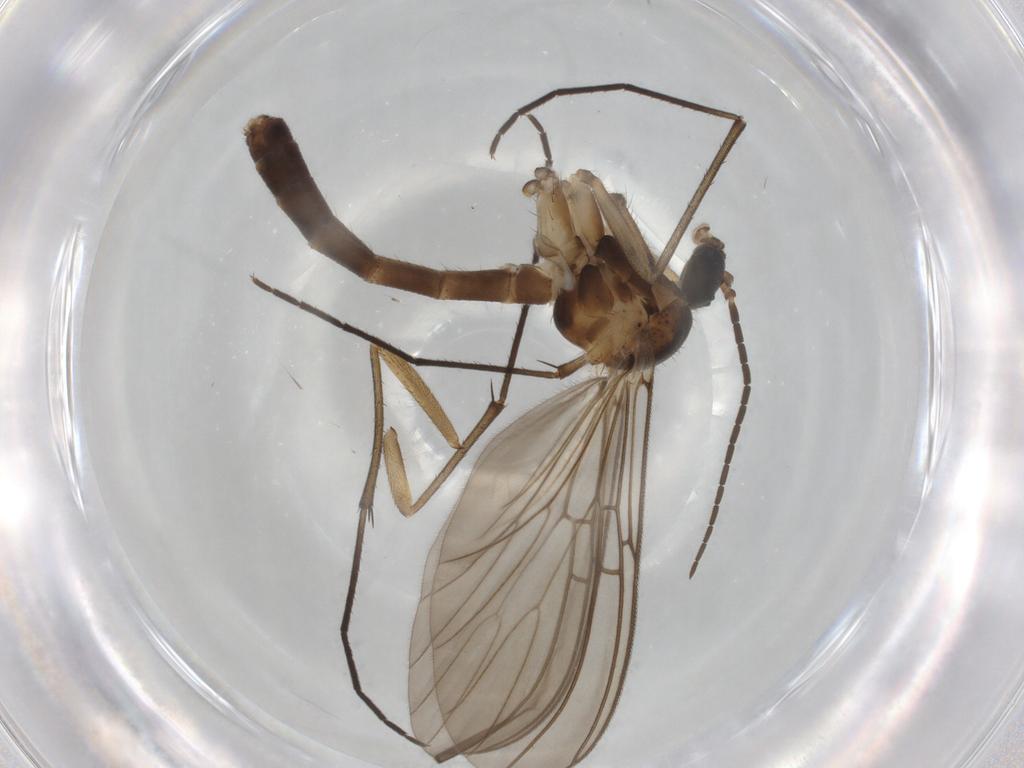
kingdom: Animalia
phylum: Arthropoda
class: Insecta
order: Diptera
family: Mycetophilidae
